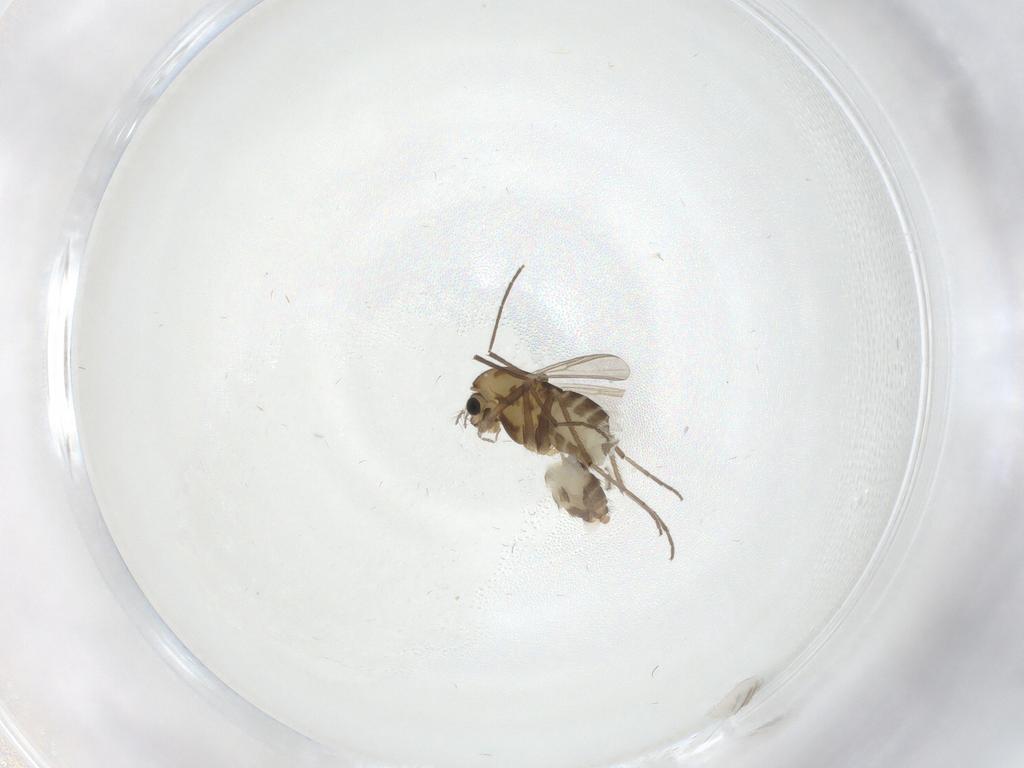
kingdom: Animalia
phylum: Arthropoda
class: Insecta
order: Diptera
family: Chironomidae
